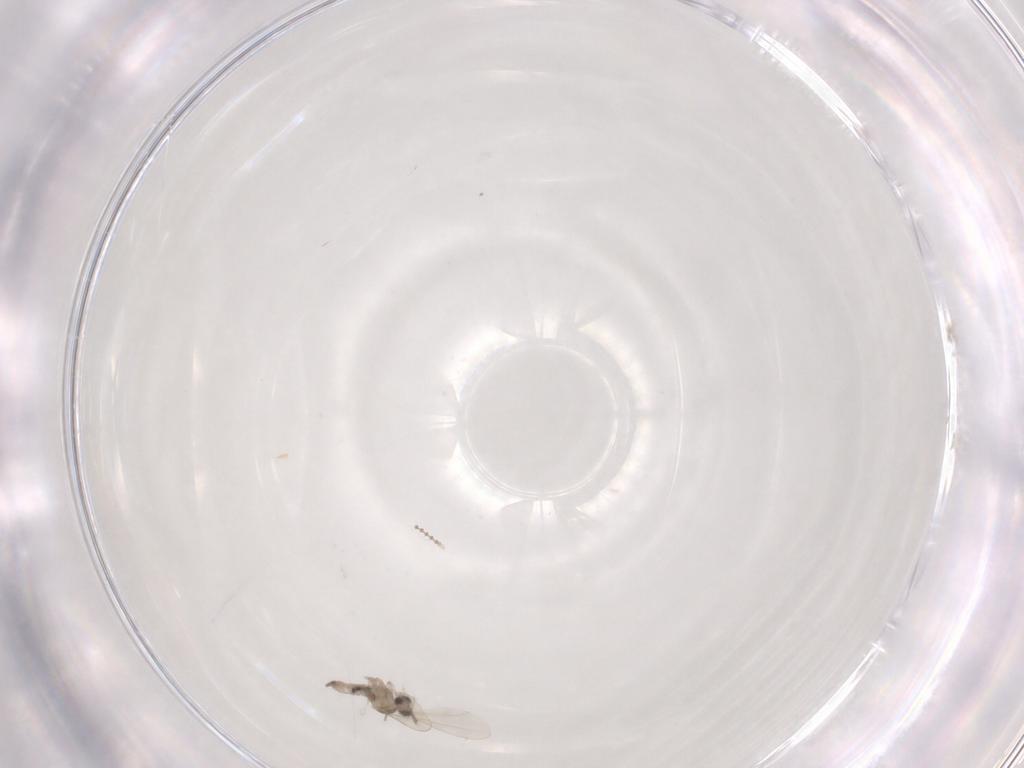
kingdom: Animalia
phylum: Arthropoda
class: Insecta
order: Diptera
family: Cecidomyiidae
